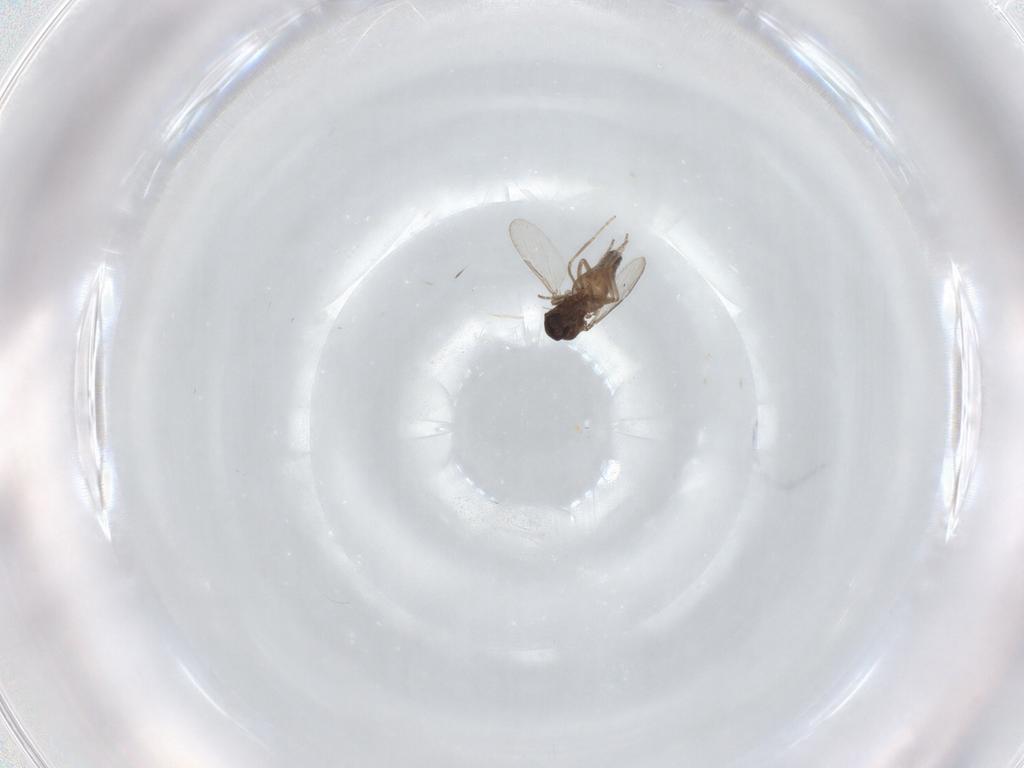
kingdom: Animalia
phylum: Arthropoda
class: Insecta
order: Diptera
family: Ceratopogonidae
